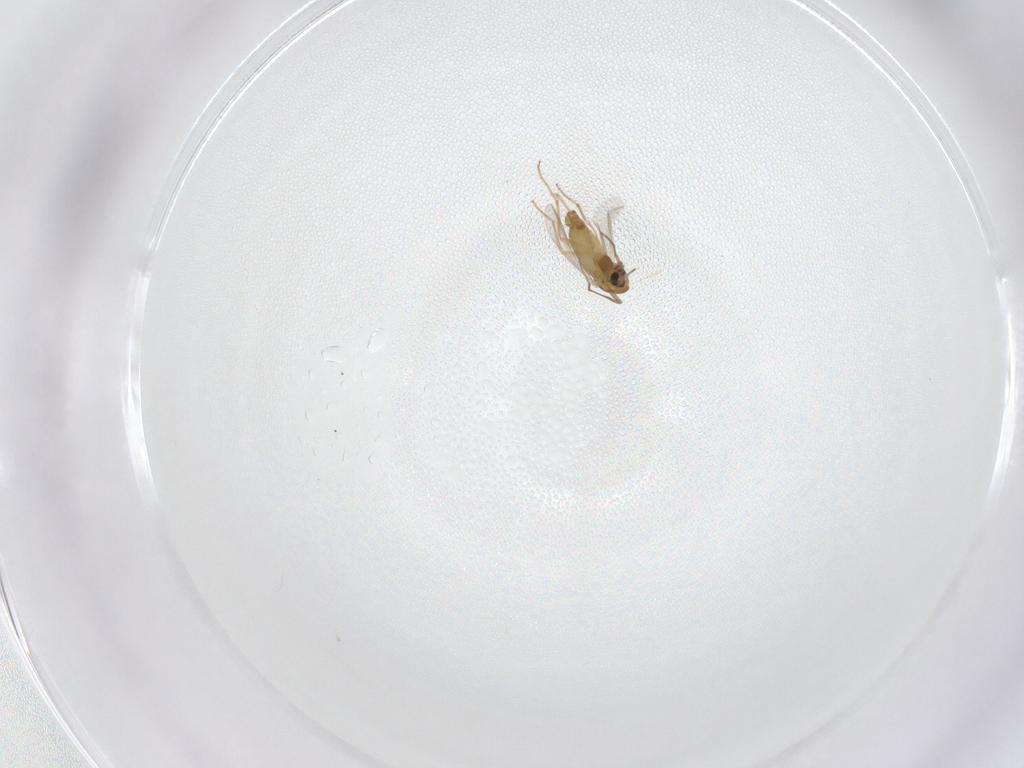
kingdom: Animalia
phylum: Arthropoda
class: Insecta
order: Diptera
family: Chironomidae
